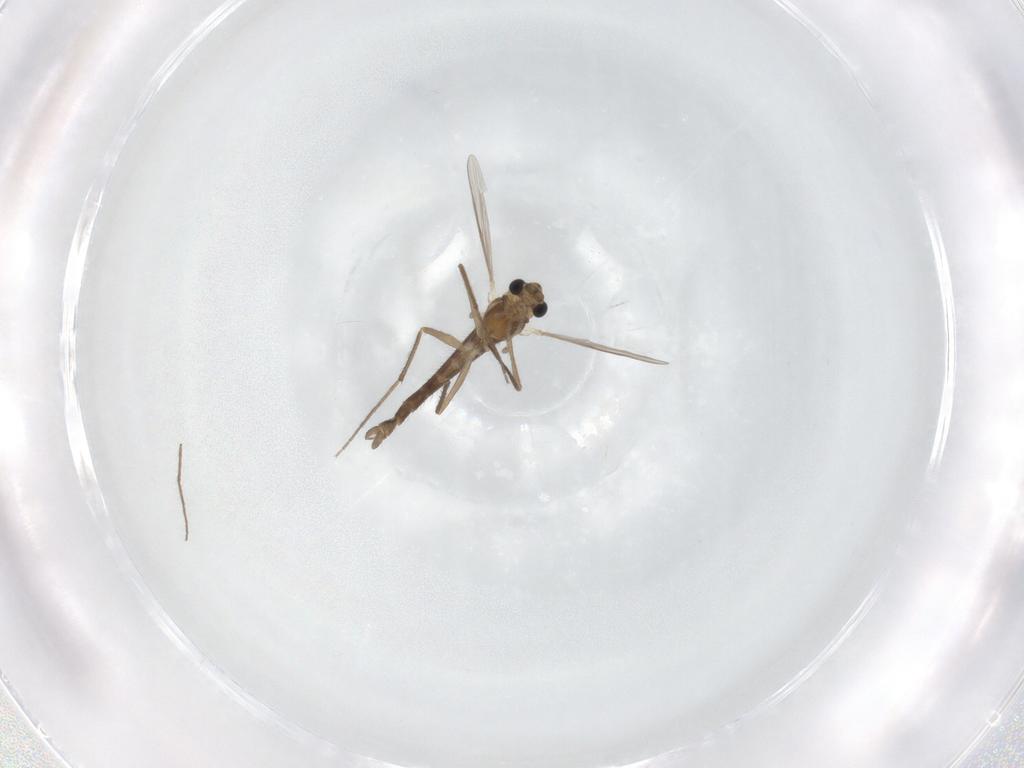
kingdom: Animalia
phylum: Arthropoda
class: Insecta
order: Diptera
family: Chironomidae
